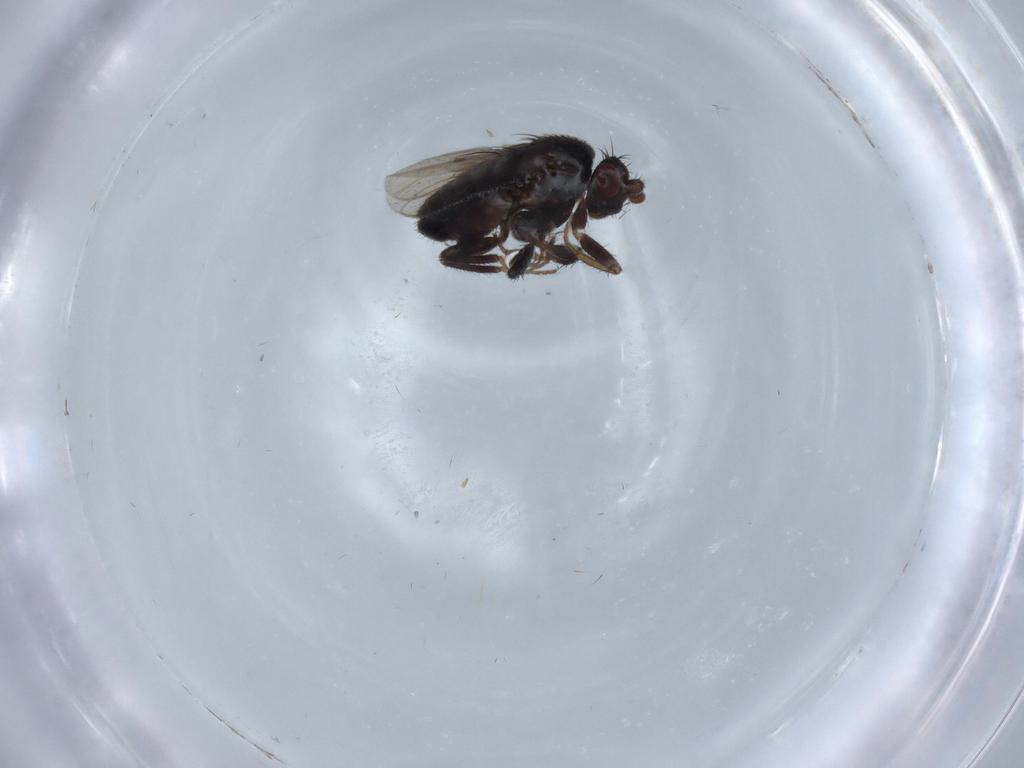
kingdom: Animalia
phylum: Arthropoda
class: Insecta
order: Diptera
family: Sphaeroceridae
